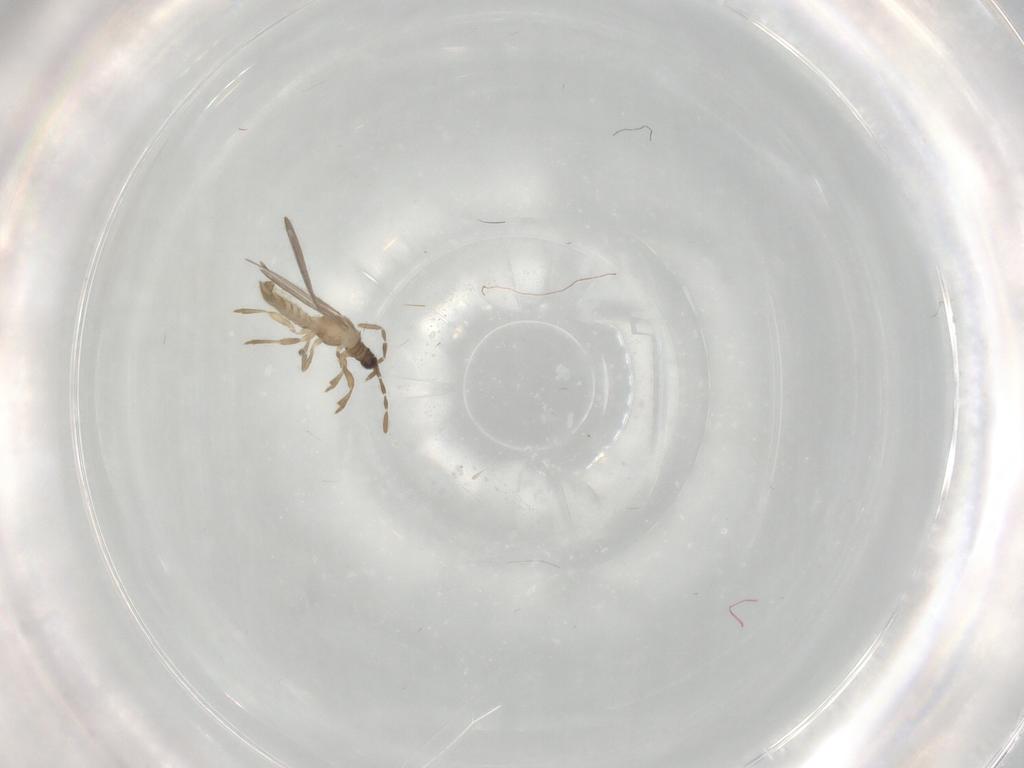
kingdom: Animalia
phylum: Arthropoda
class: Insecta
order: Hemiptera
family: Enicocephalidae
